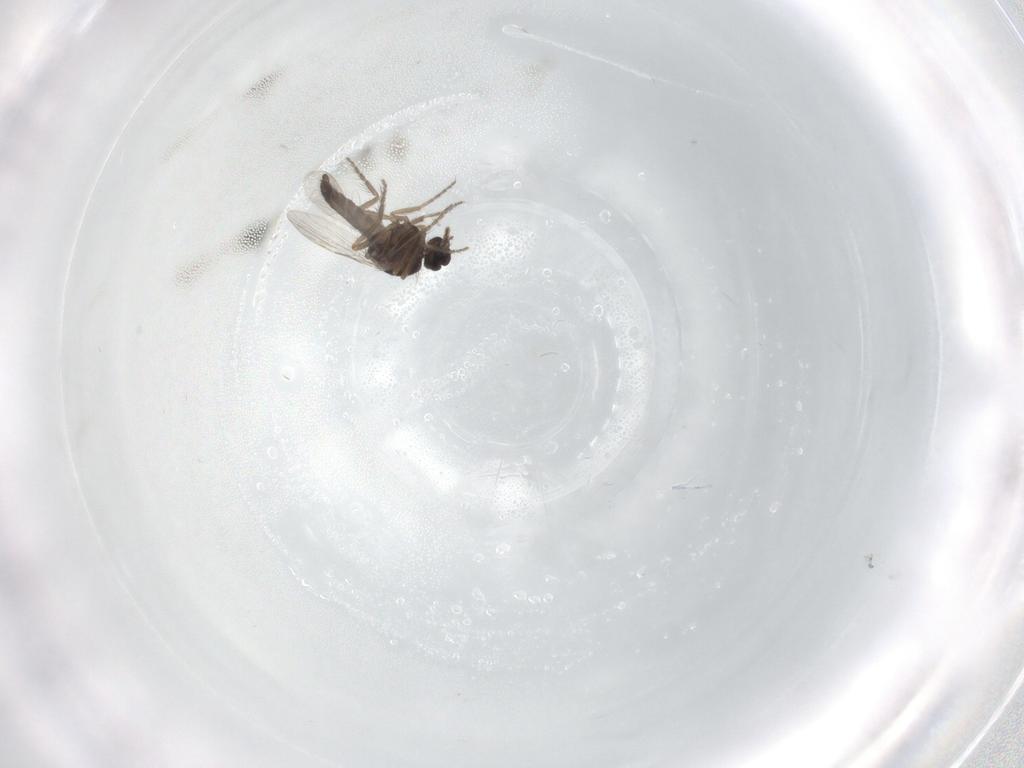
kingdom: Animalia
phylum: Arthropoda
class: Insecta
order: Diptera
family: Ceratopogonidae
